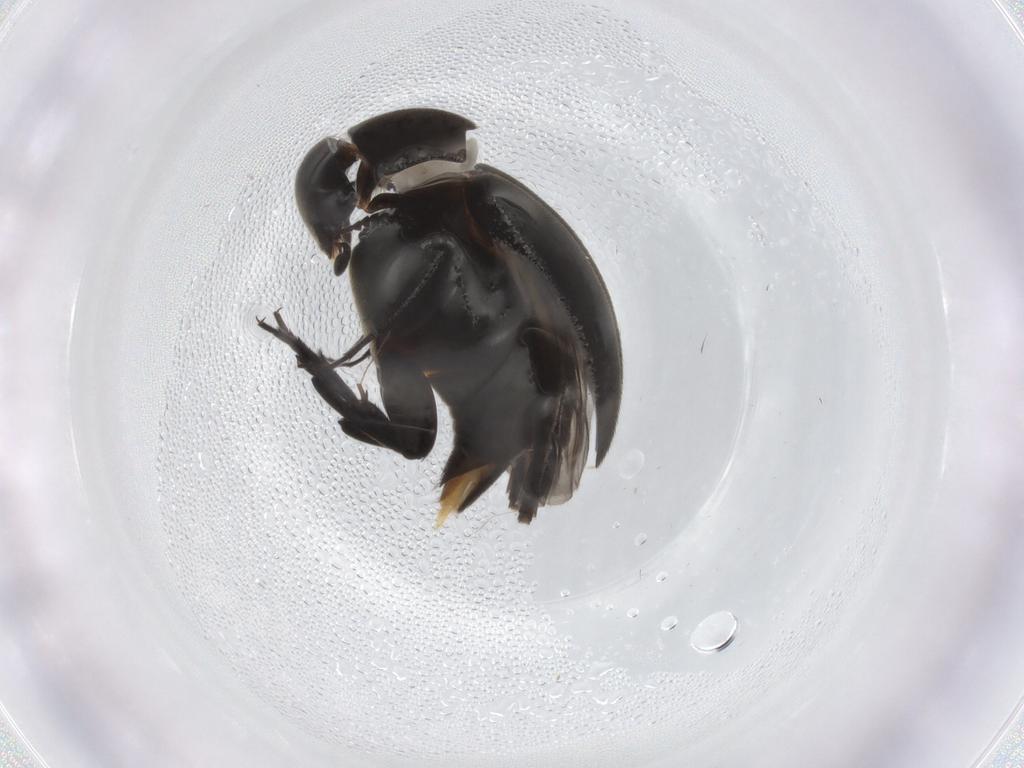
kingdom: Animalia
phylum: Arthropoda
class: Insecta
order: Coleoptera
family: Mordellidae
